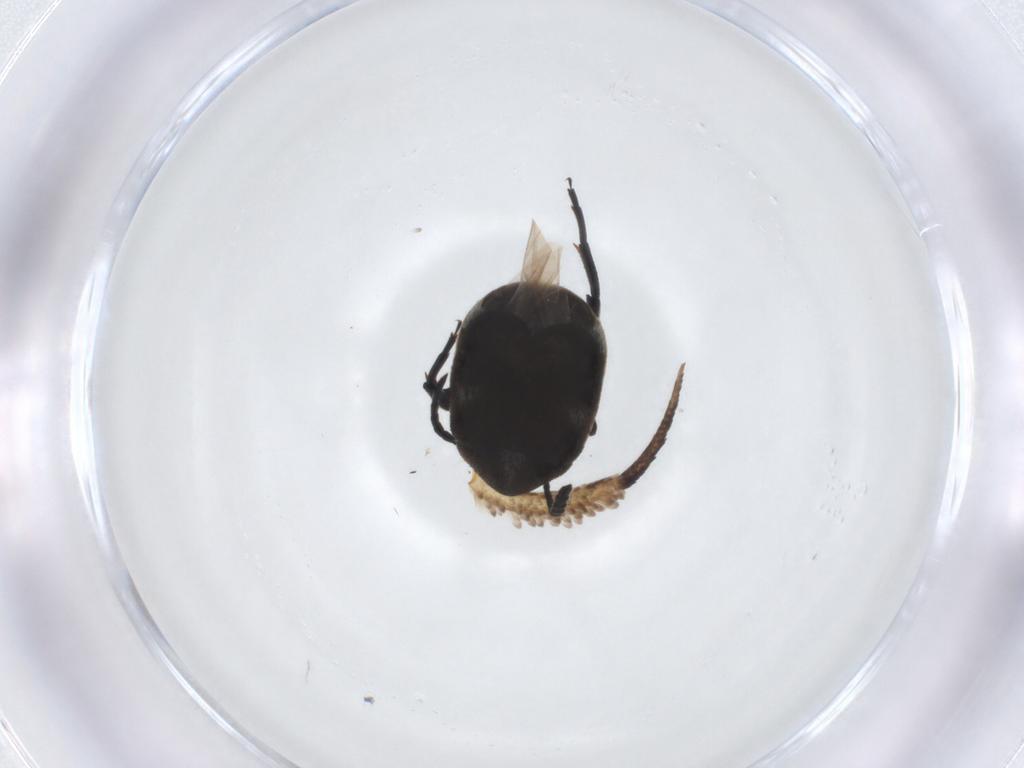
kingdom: Animalia
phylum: Arthropoda
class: Insecta
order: Coleoptera
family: Chrysomelidae
